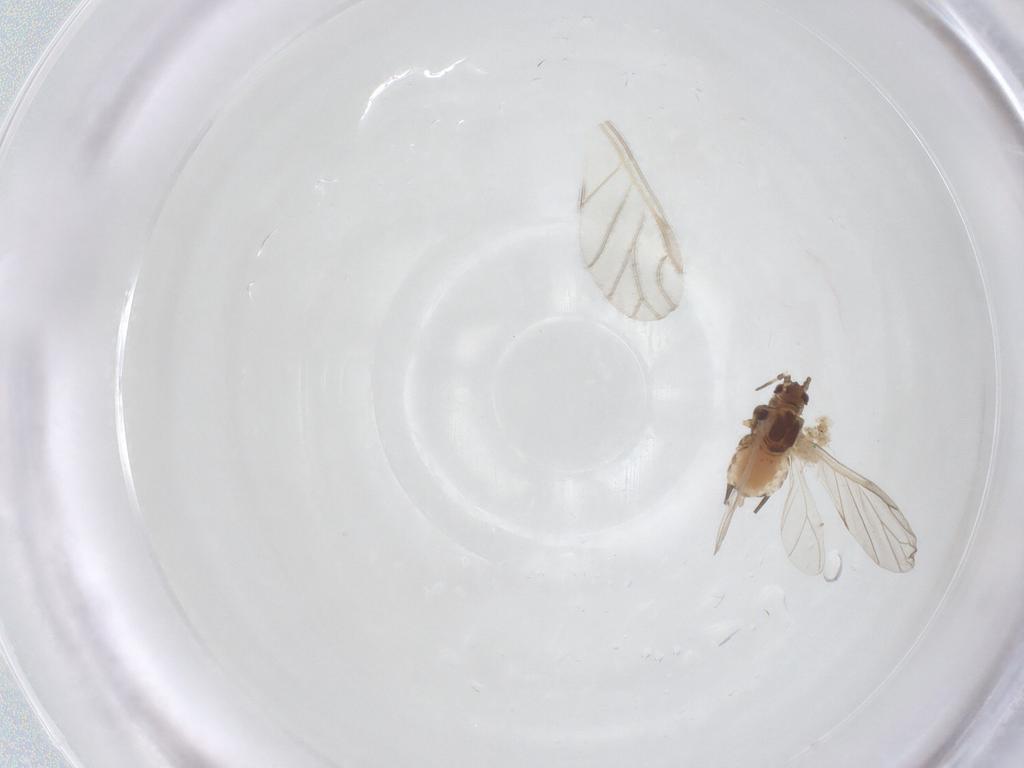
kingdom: Animalia
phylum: Arthropoda
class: Insecta
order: Hemiptera
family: Aphididae
